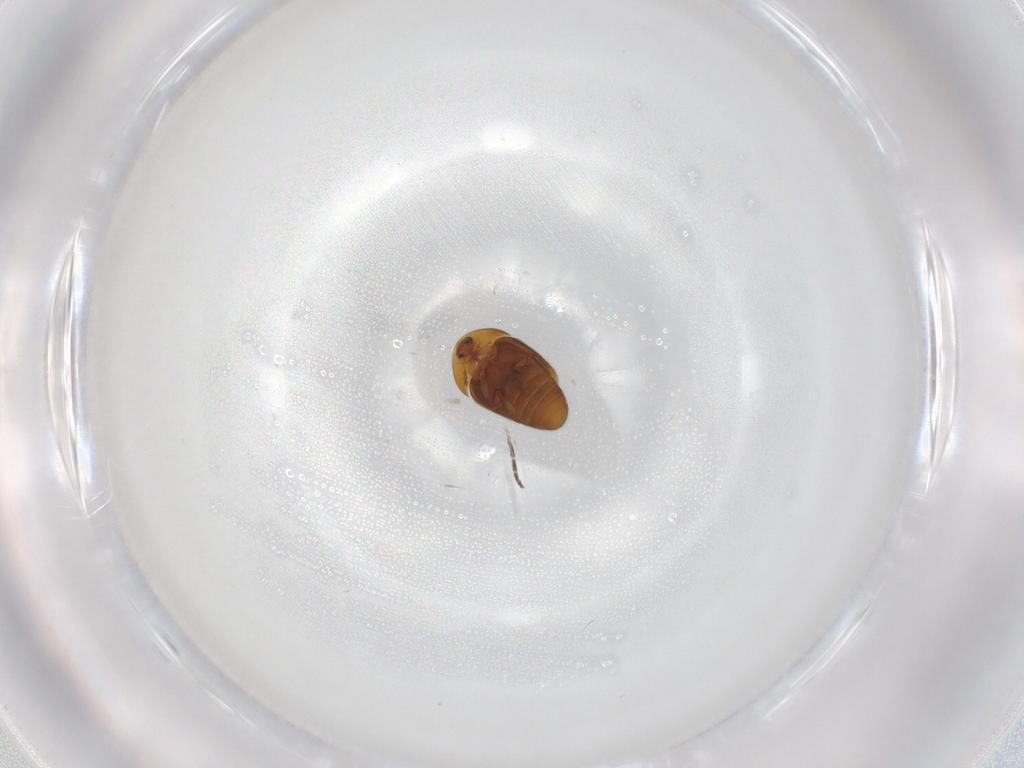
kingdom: Animalia
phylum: Arthropoda
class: Insecta
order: Coleoptera
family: Corylophidae
